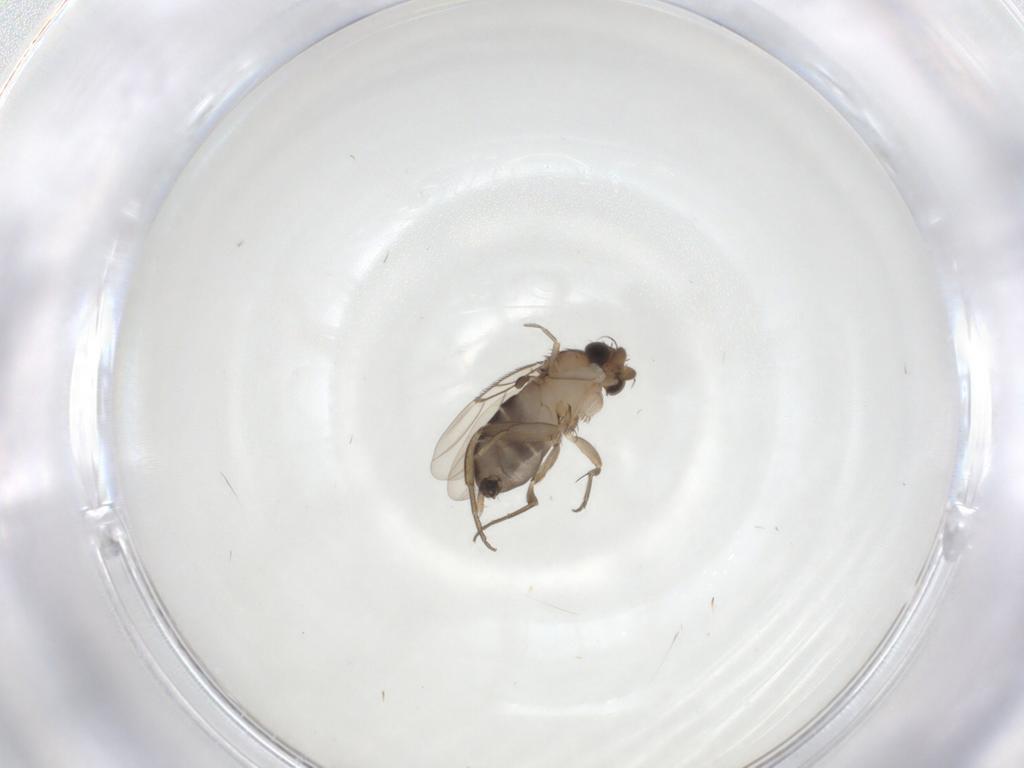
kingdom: Animalia
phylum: Arthropoda
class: Insecta
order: Diptera
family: Phoridae
